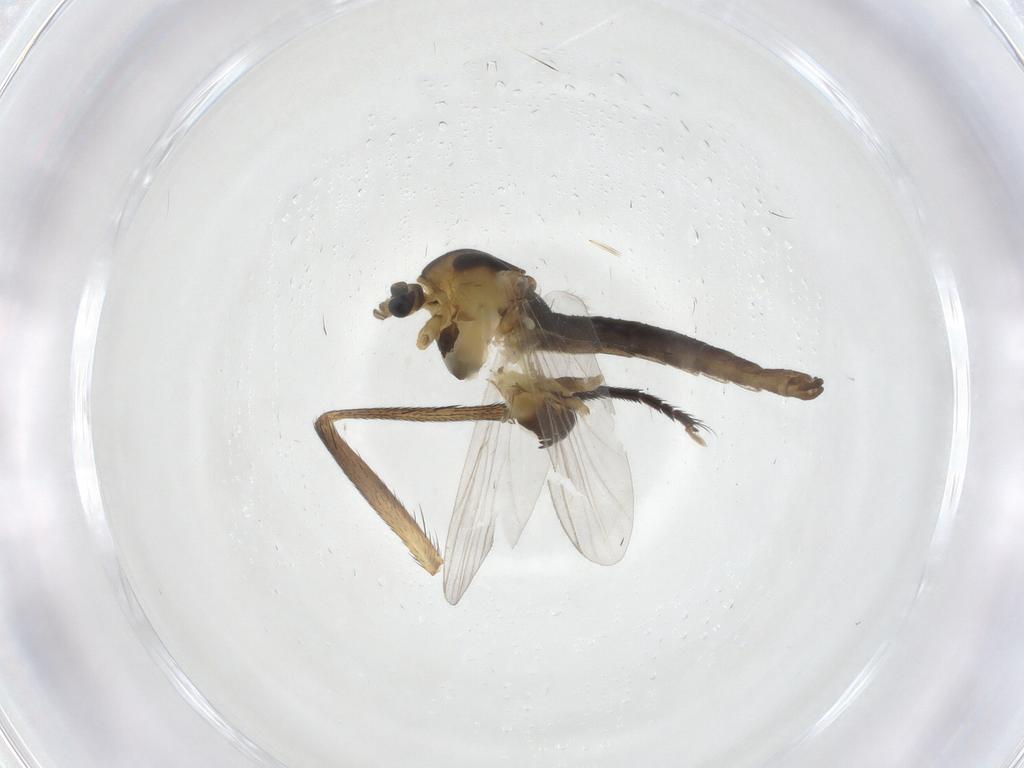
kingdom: Animalia
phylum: Arthropoda
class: Insecta
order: Diptera
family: Chironomidae
